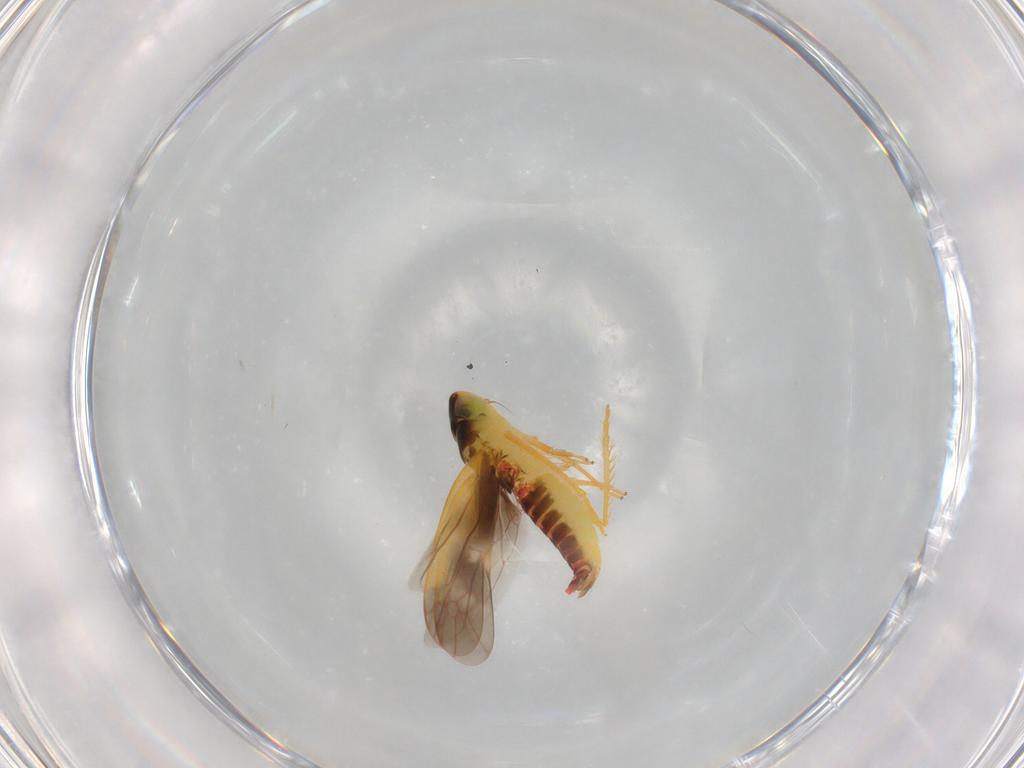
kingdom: Animalia
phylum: Arthropoda
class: Insecta
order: Hemiptera
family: Cicadellidae
